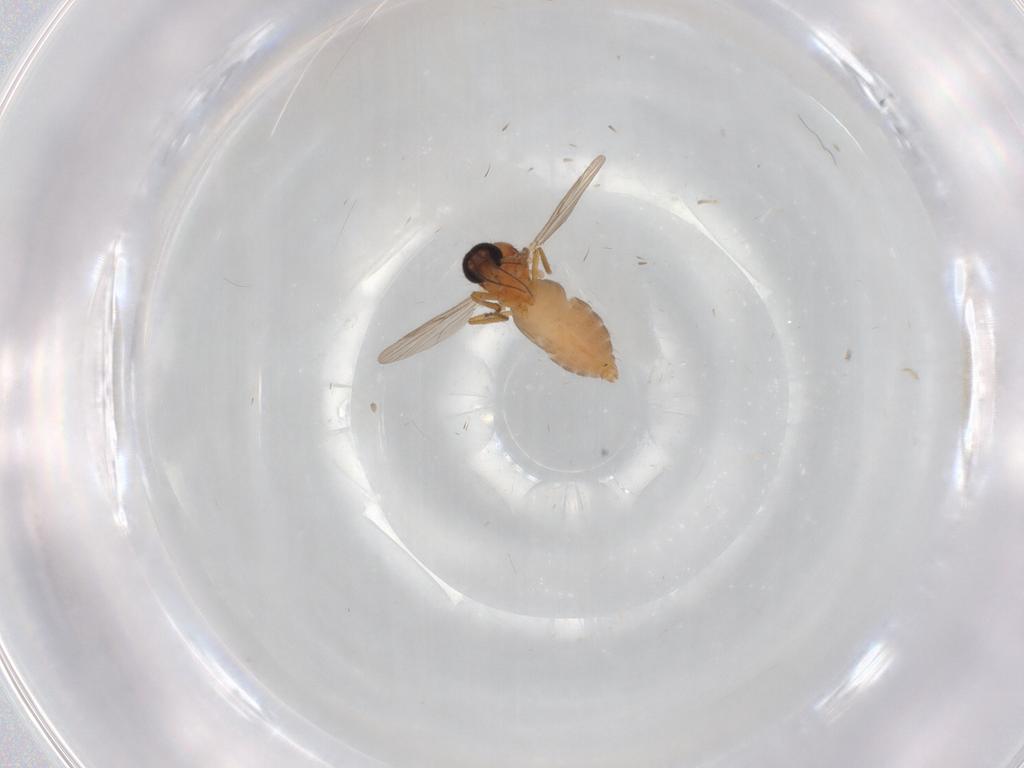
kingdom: Animalia
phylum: Arthropoda
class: Insecta
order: Diptera
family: Ceratopogonidae
